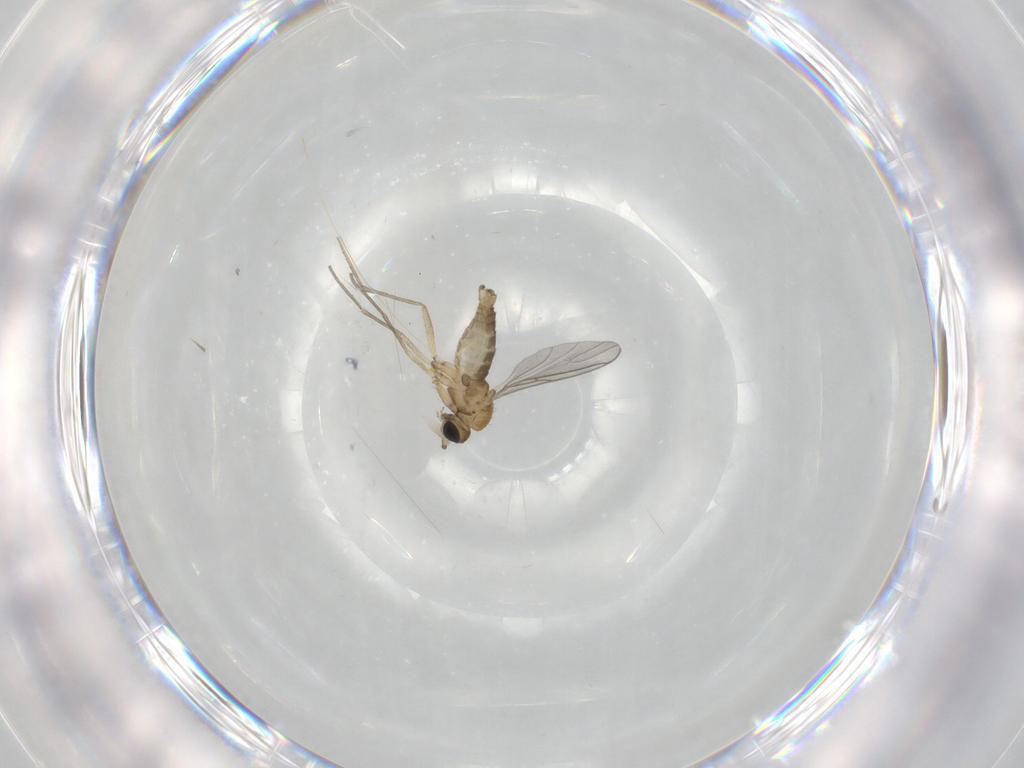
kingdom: Animalia
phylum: Arthropoda
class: Insecta
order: Diptera
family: Sciaridae
